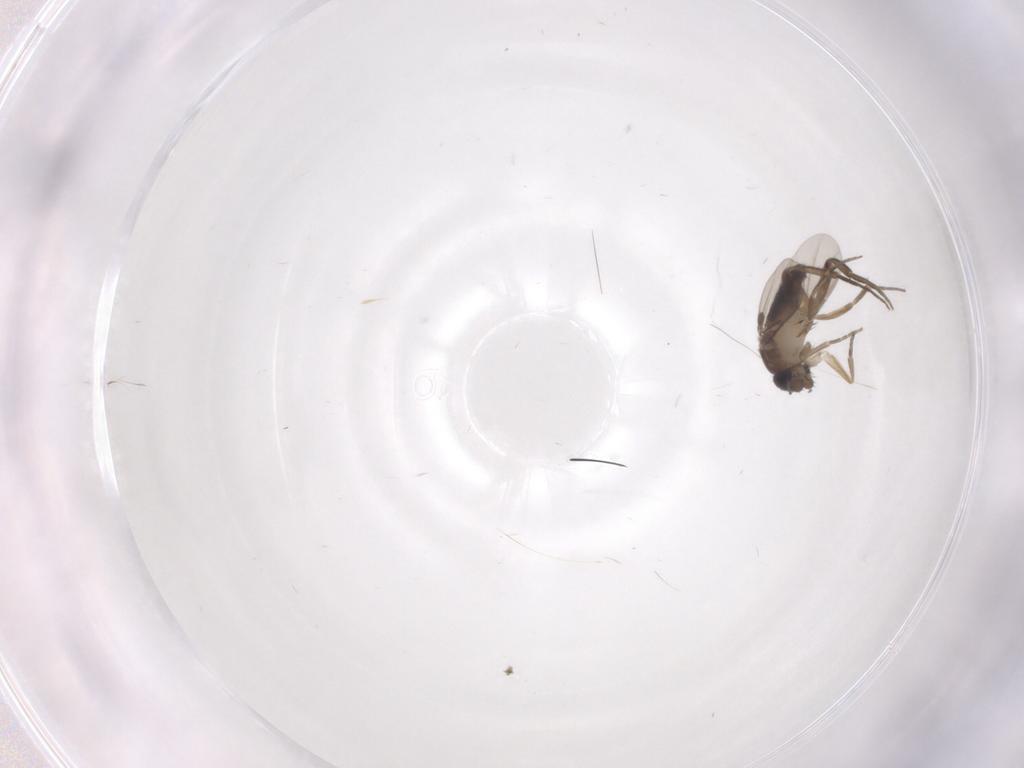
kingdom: Animalia
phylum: Arthropoda
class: Insecta
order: Diptera
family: Phoridae
